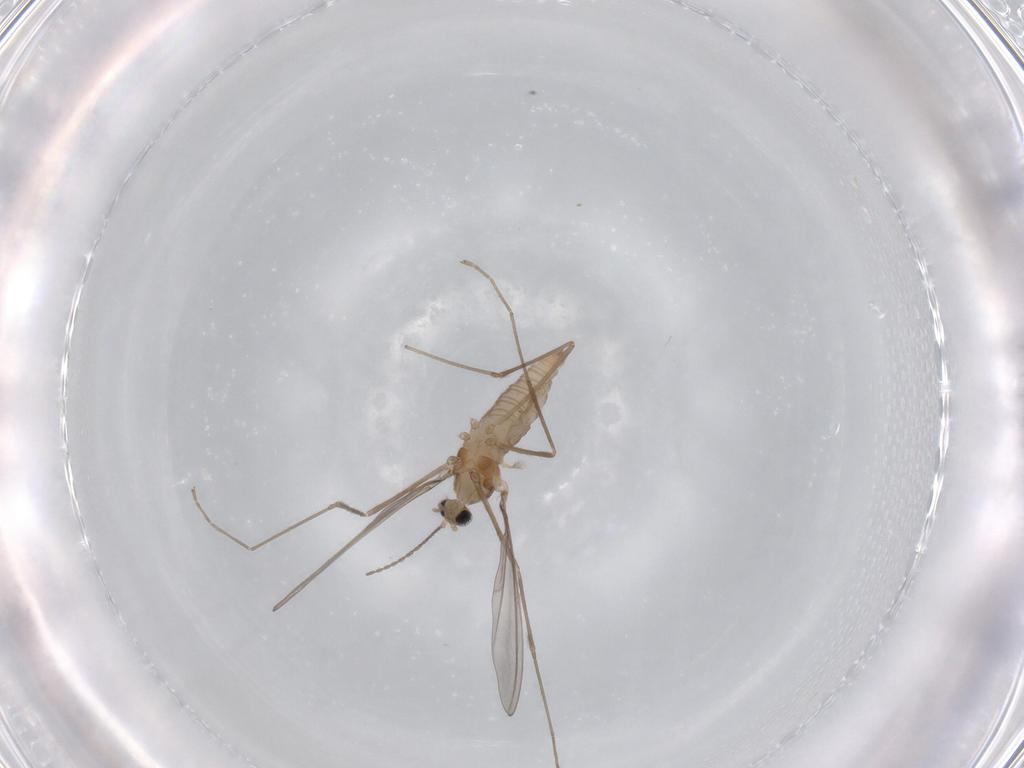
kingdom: Animalia
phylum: Arthropoda
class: Insecta
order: Diptera
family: Cecidomyiidae
